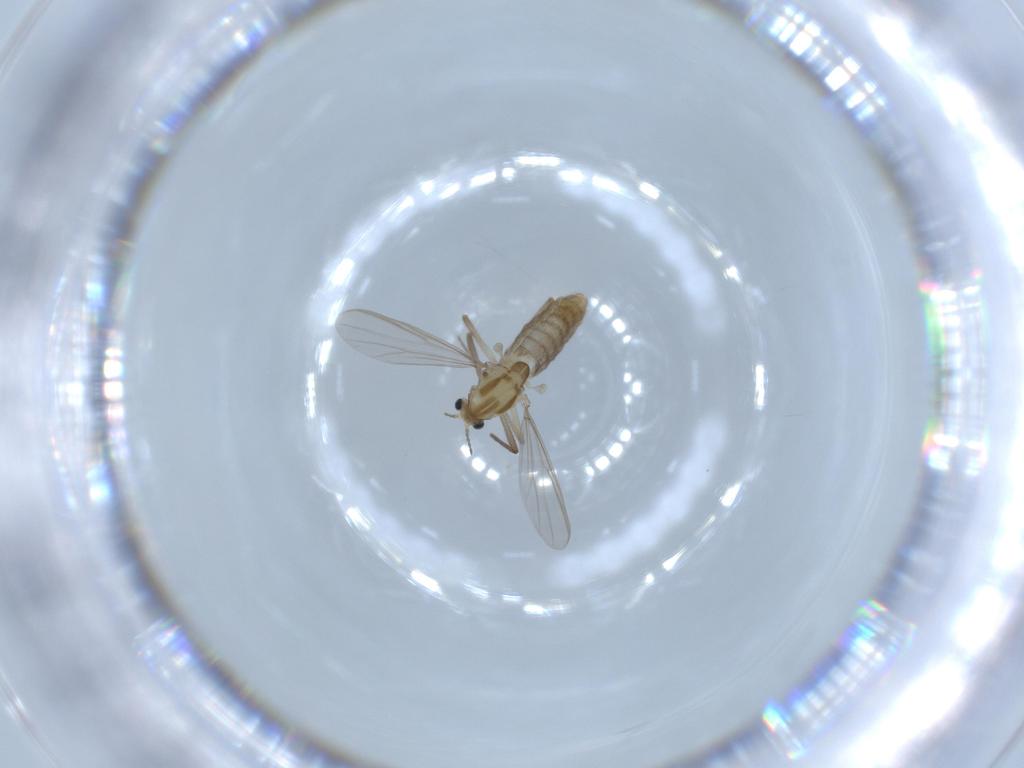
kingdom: Animalia
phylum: Arthropoda
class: Insecta
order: Diptera
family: Chironomidae
